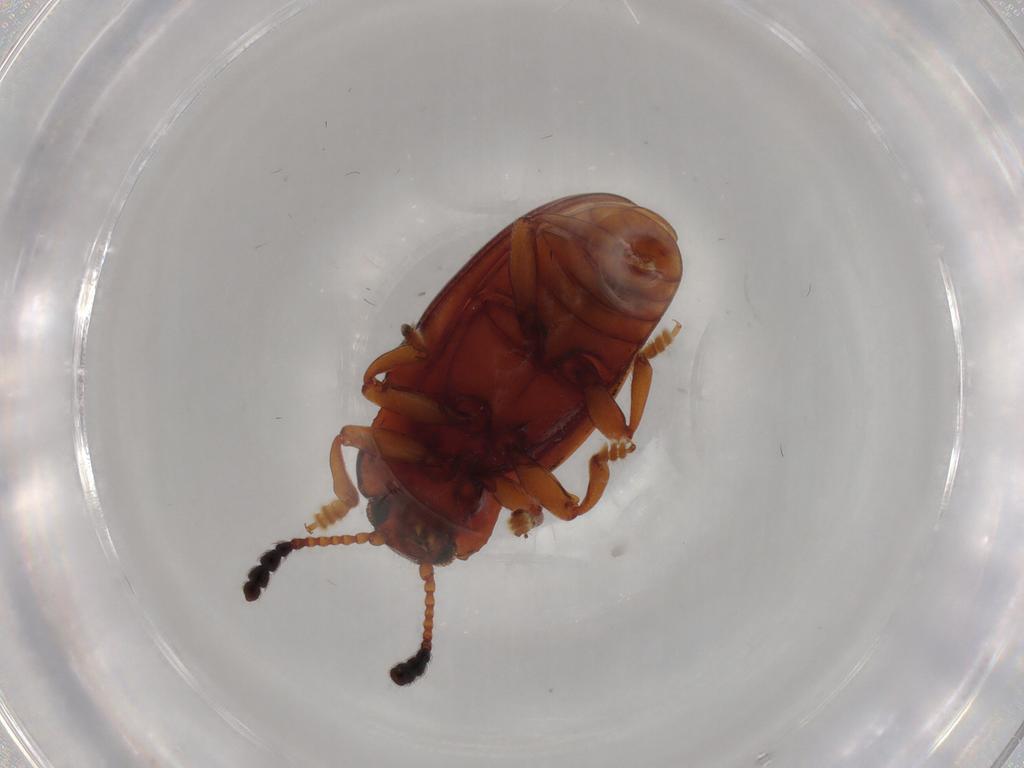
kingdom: Animalia
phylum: Arthropoda
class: Insecta
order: Coleoptera
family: Erotylidae
